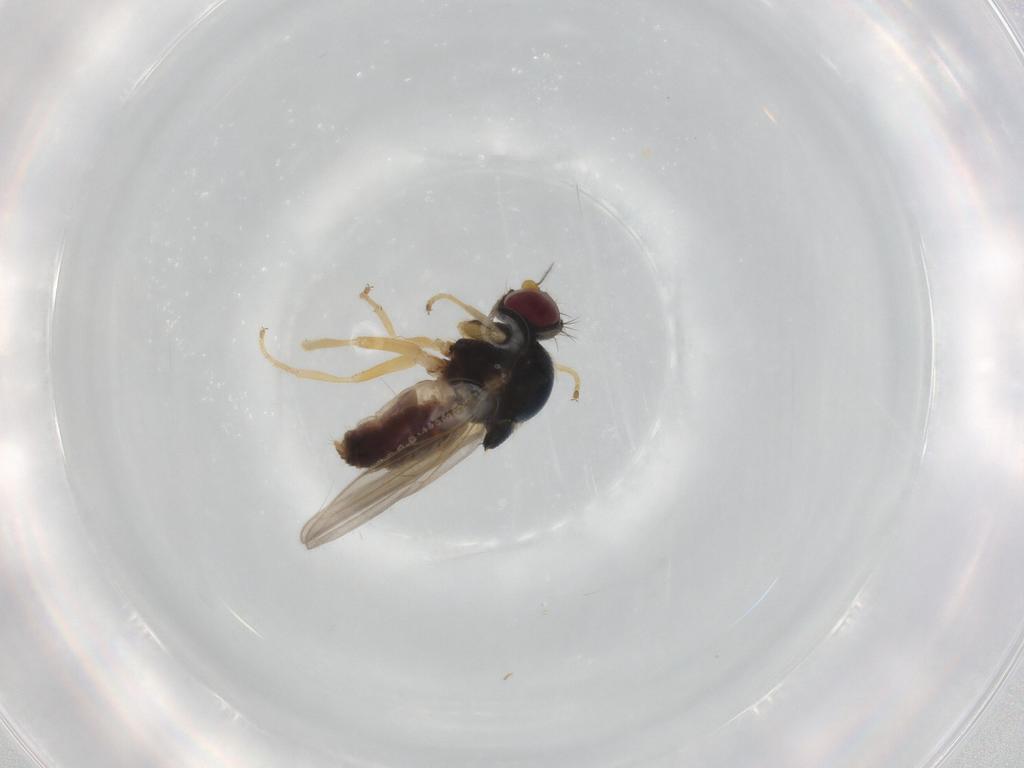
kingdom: Animalia
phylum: Arthropoda
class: Insecta
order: Diptera
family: Chloropidae
